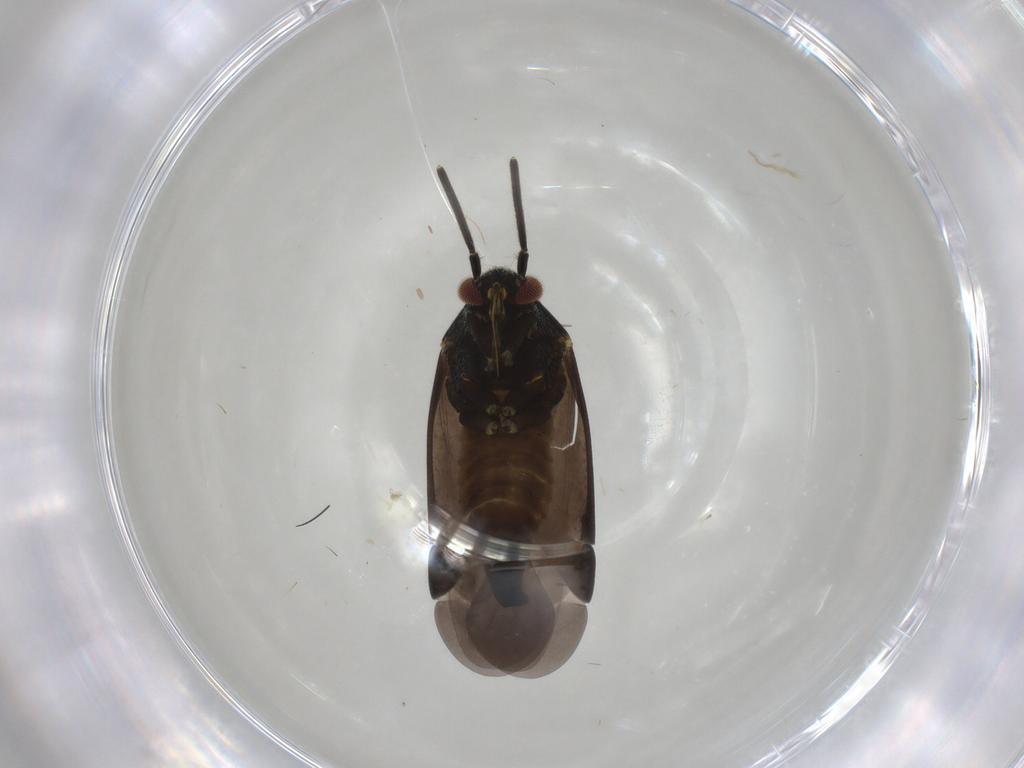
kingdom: Animalia
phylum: Arthropoda
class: Insecta
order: Hemiptera
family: Miridae
